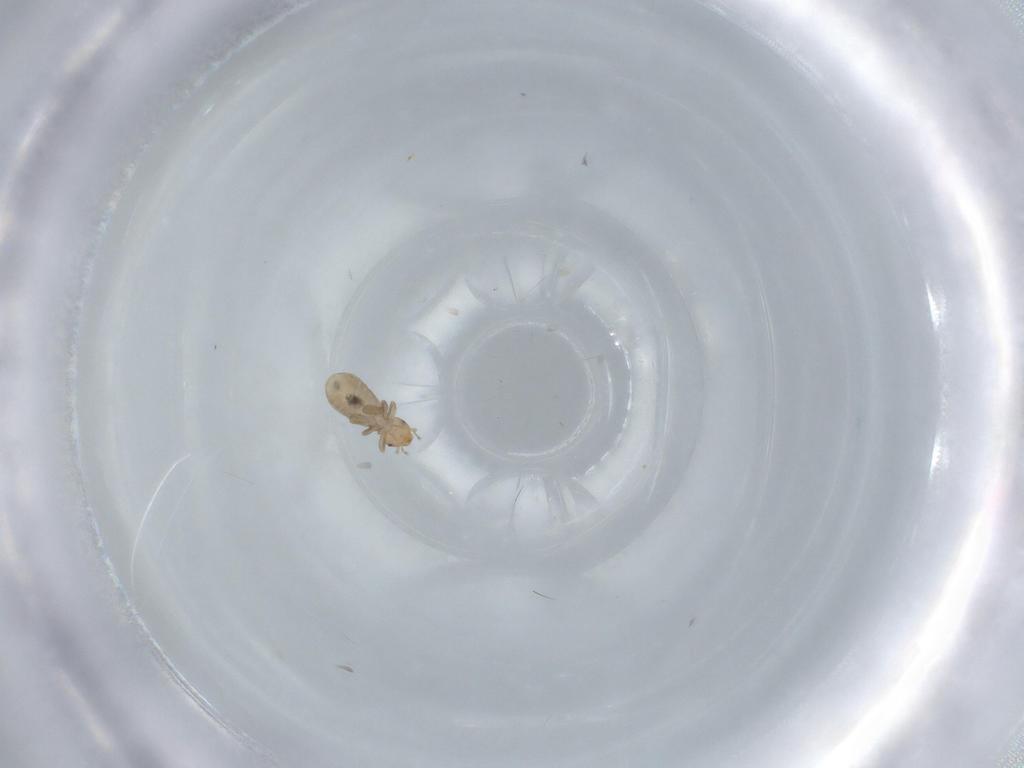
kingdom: Animalia
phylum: Arthropoda
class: Insecta
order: Psocodea
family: Liposcelididae
